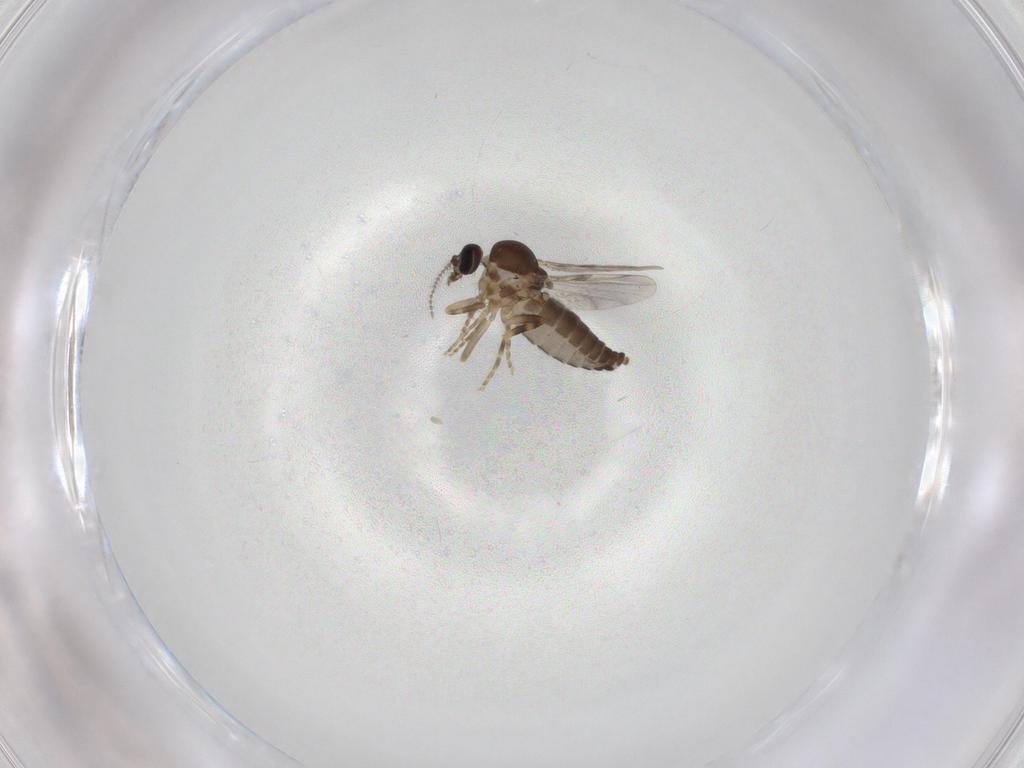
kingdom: Animalia
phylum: Arthropoda
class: Insecta
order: Diptera
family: Ceratopogonidae
